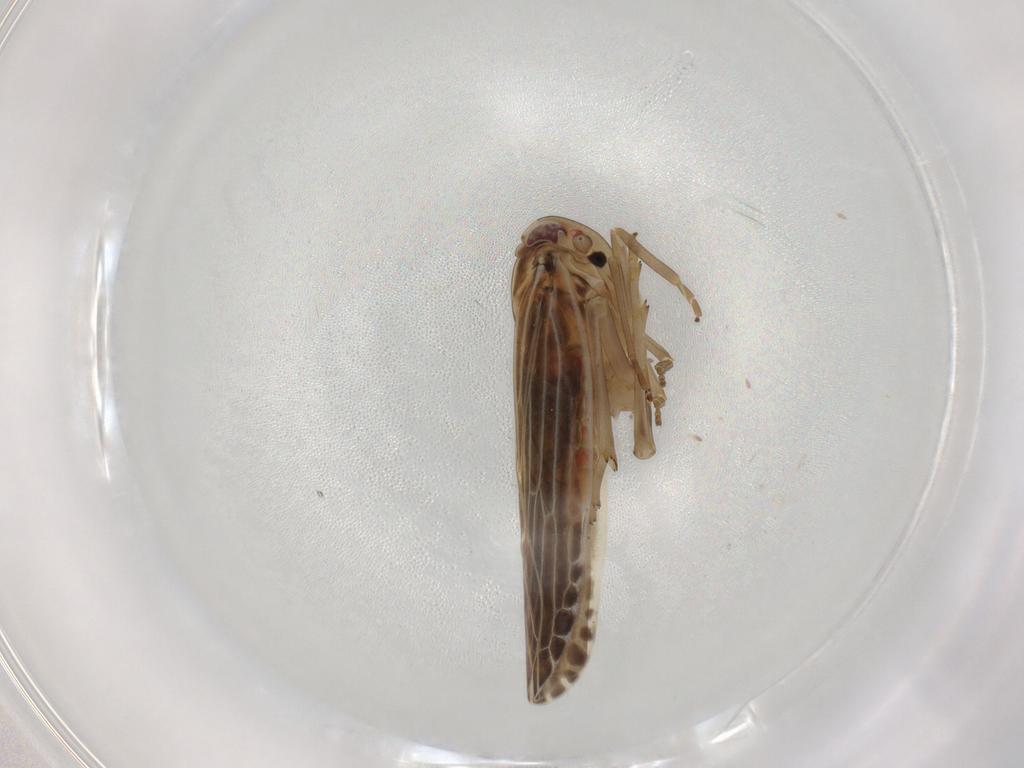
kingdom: Animalia
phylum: Arthropoda
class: Insecta
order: Hemiptera
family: Achilidae
